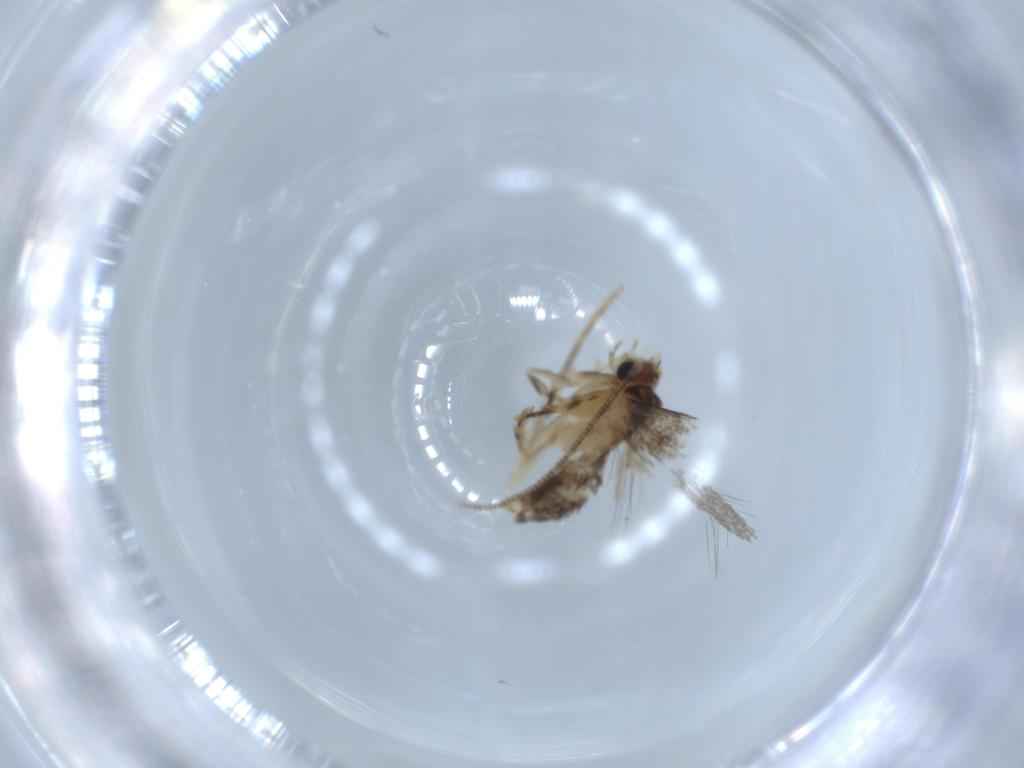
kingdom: Animalia
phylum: Arthropoda
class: Insecta
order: Lepidoptera
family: Tineidae
